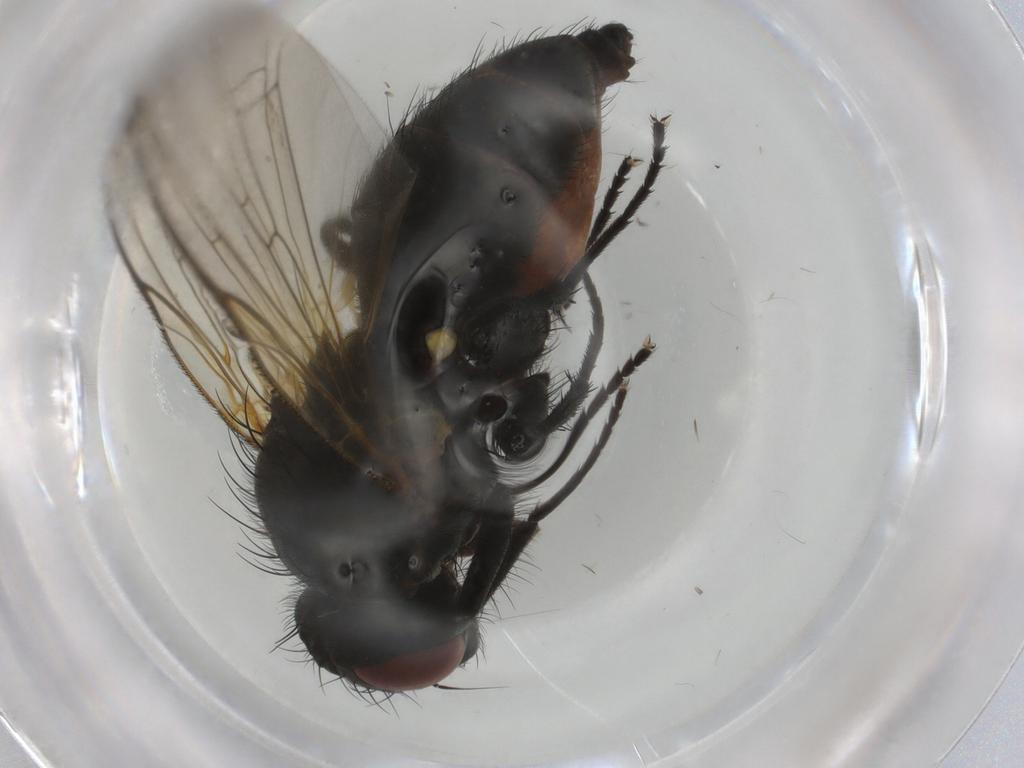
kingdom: Animalia
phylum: Arthropoda
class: Insecta
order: Diptera
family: Anthomyiidae
